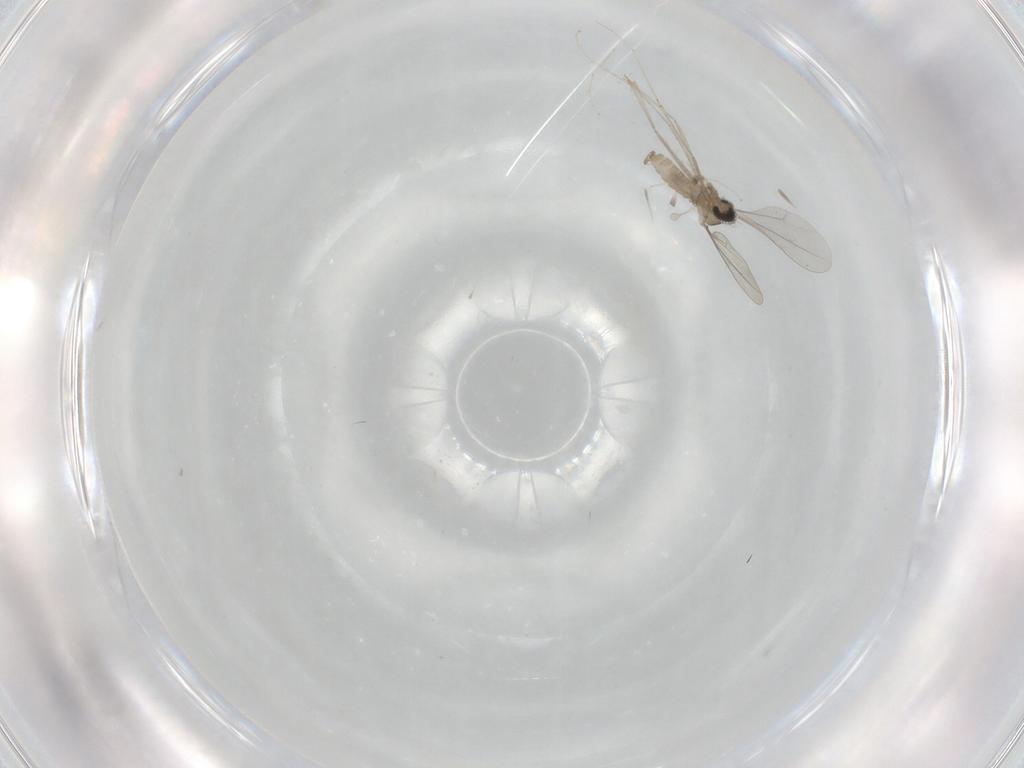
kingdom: Animalia
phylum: Arthropoda
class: Insecta
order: Diptera
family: Cecidomyiidae
